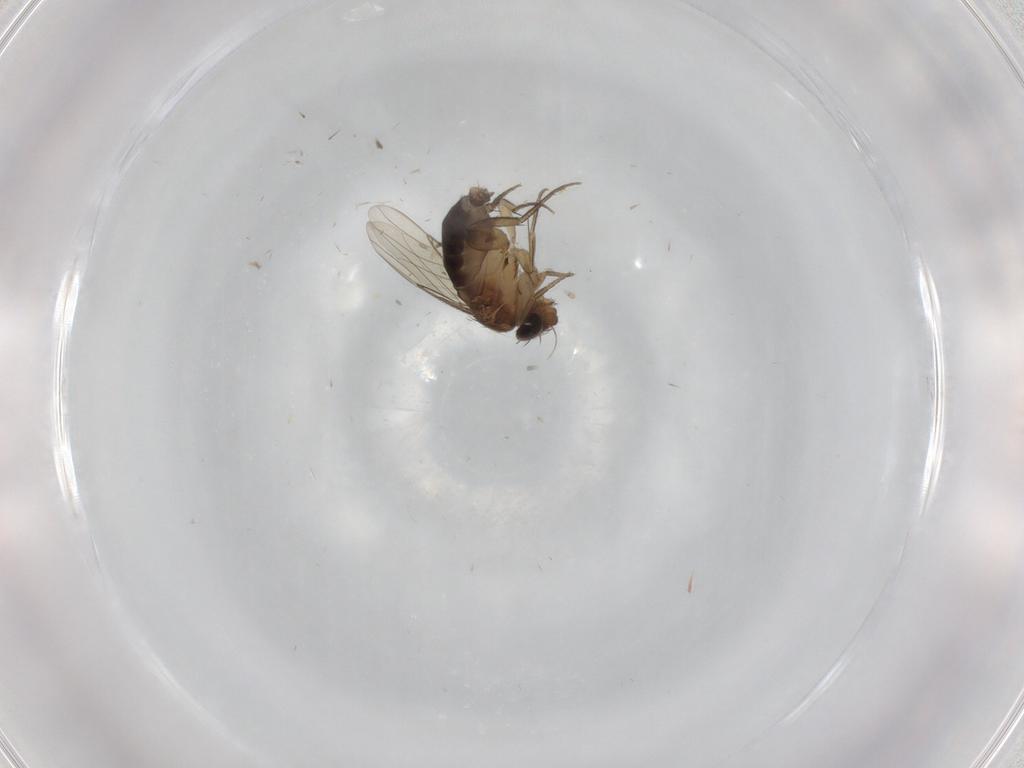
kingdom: Animalia
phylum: Arthropoda
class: Insecta
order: Diptera
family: Phoridae
